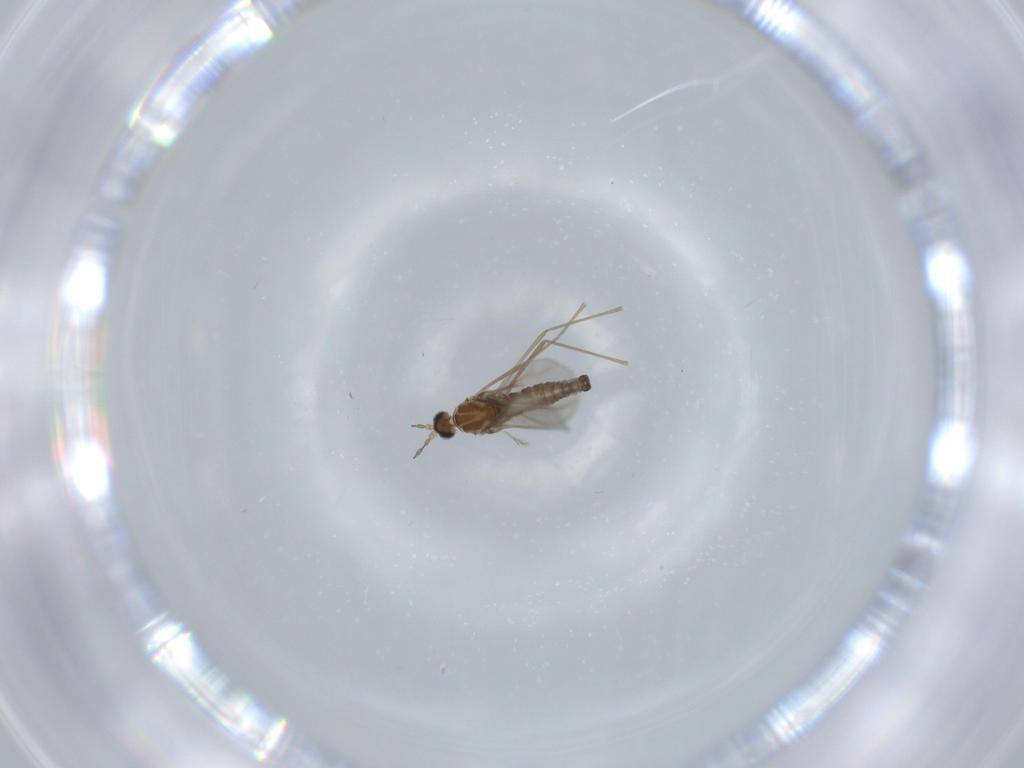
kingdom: Animalia
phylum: Arthropoda
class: Insecta
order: Diptera
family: Cecidomyiidae
